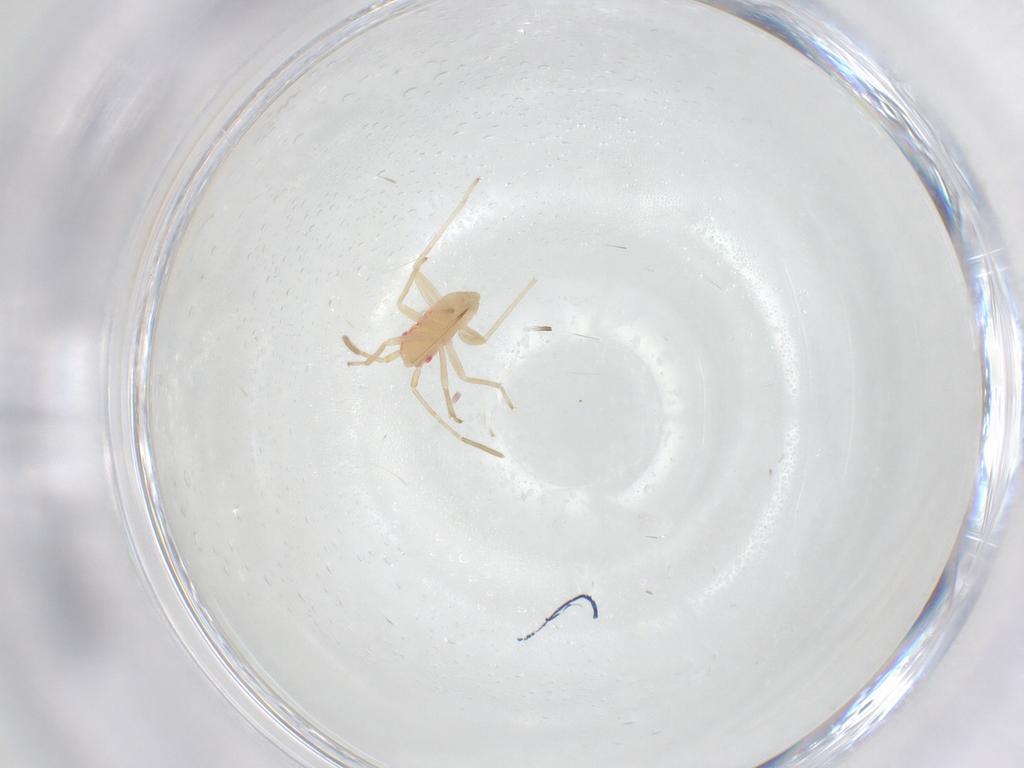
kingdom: Animalia
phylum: Arthropoda
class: Insecta
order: Hemiptera
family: Miridae
